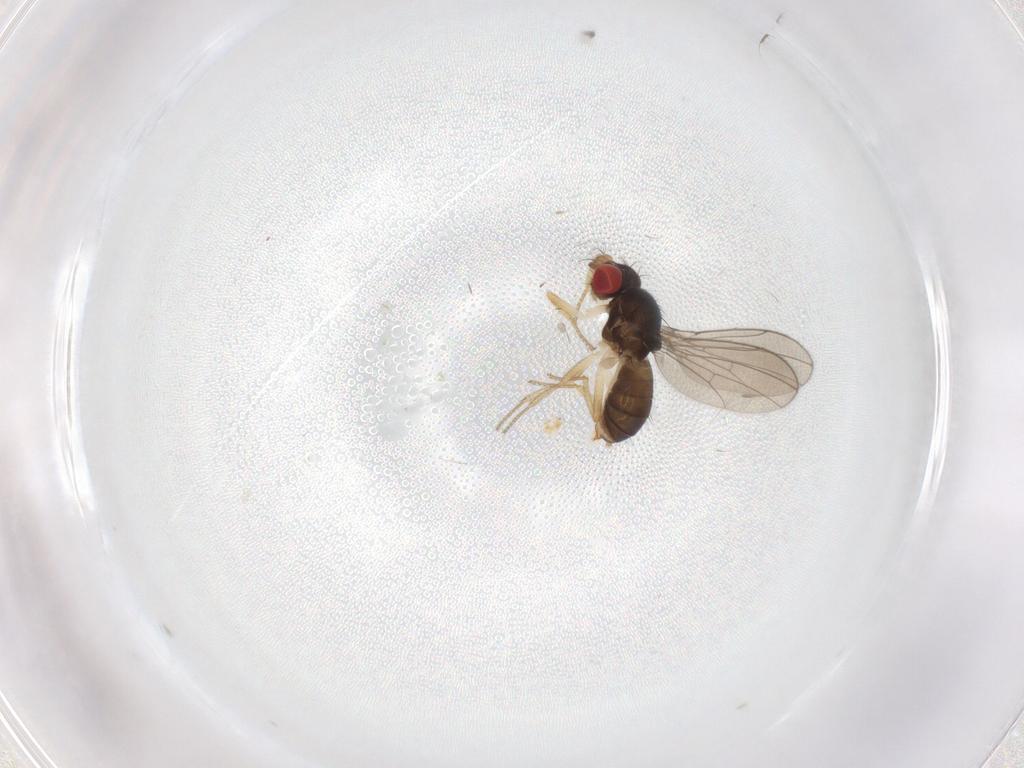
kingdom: Animalia
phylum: Arthropoda
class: Insecta
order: Diptera
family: Drosophilidae
